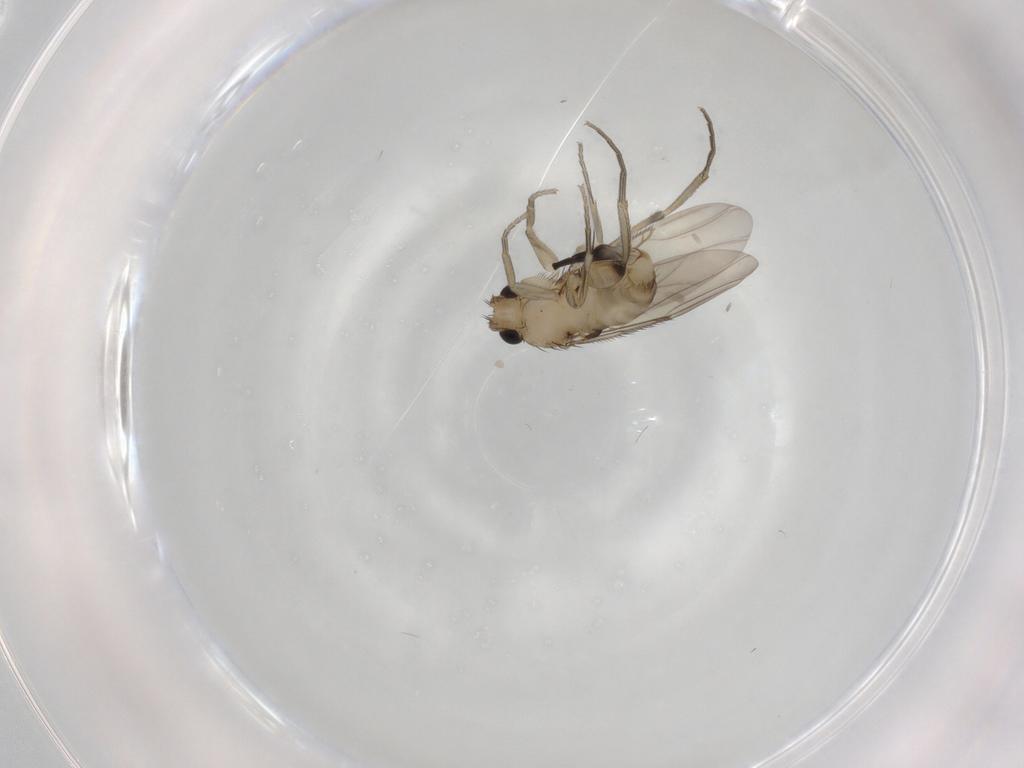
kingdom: Animalia
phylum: Arthropoda
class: Insecta
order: Diptera
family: Phoridae
